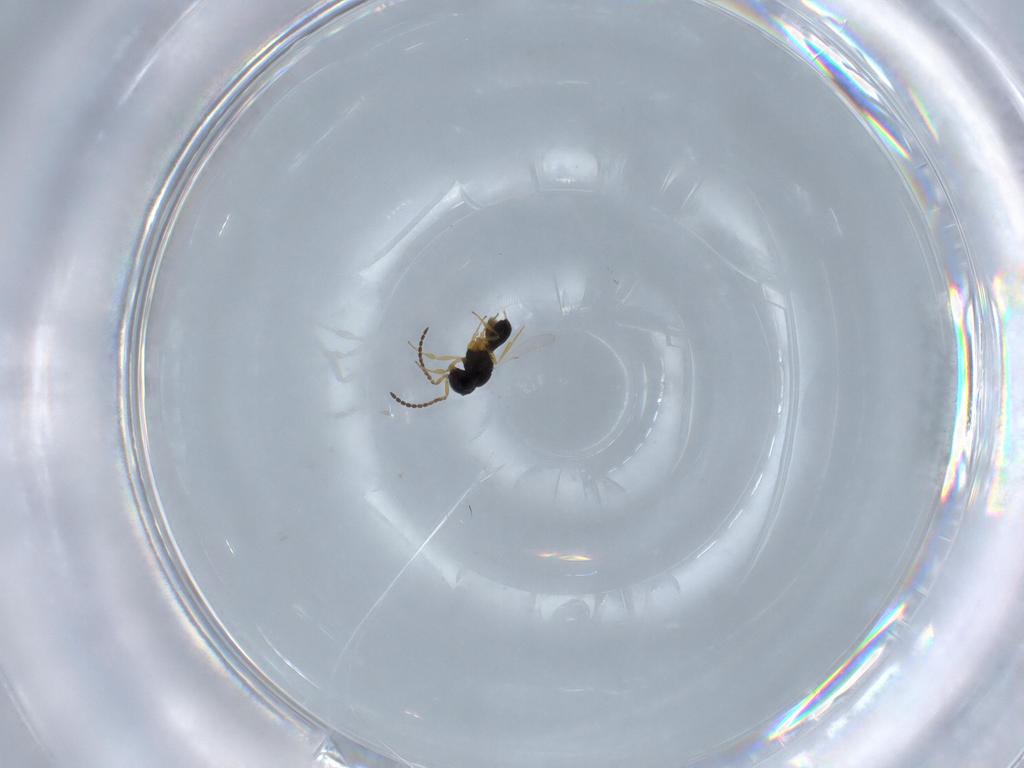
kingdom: Animalia
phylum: Arthropoda
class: Insecta
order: Hymenoptera
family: Scelionidae
